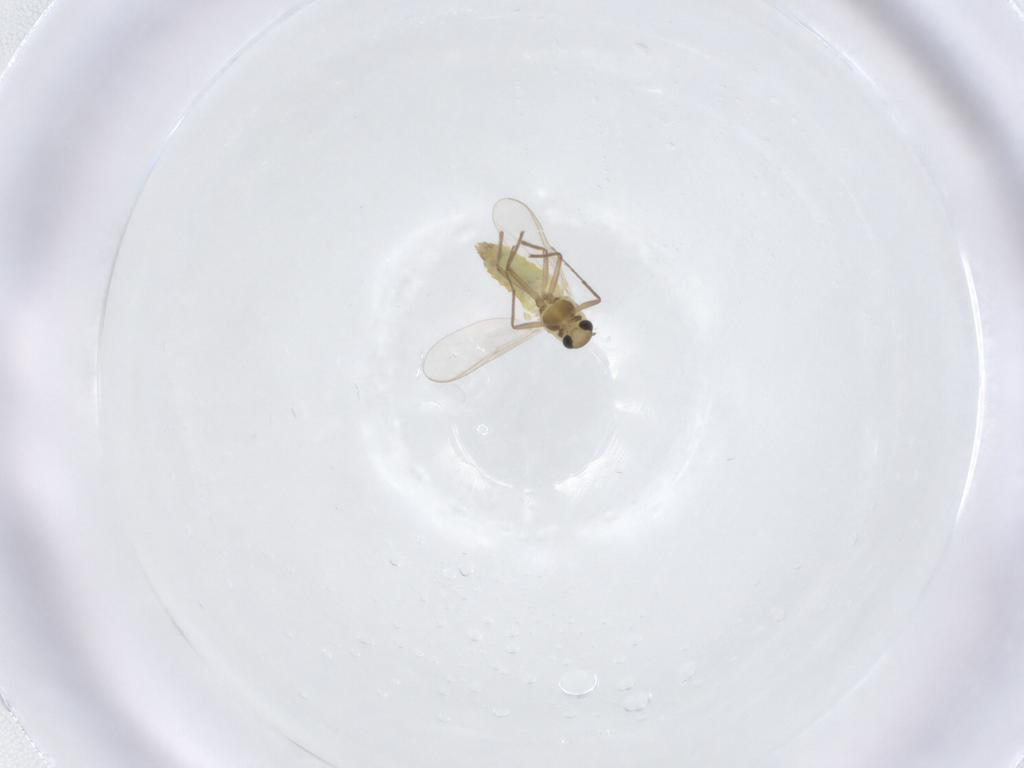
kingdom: Animalia
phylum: Arthropoda
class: Insecta
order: Diptera
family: Chironomidae
